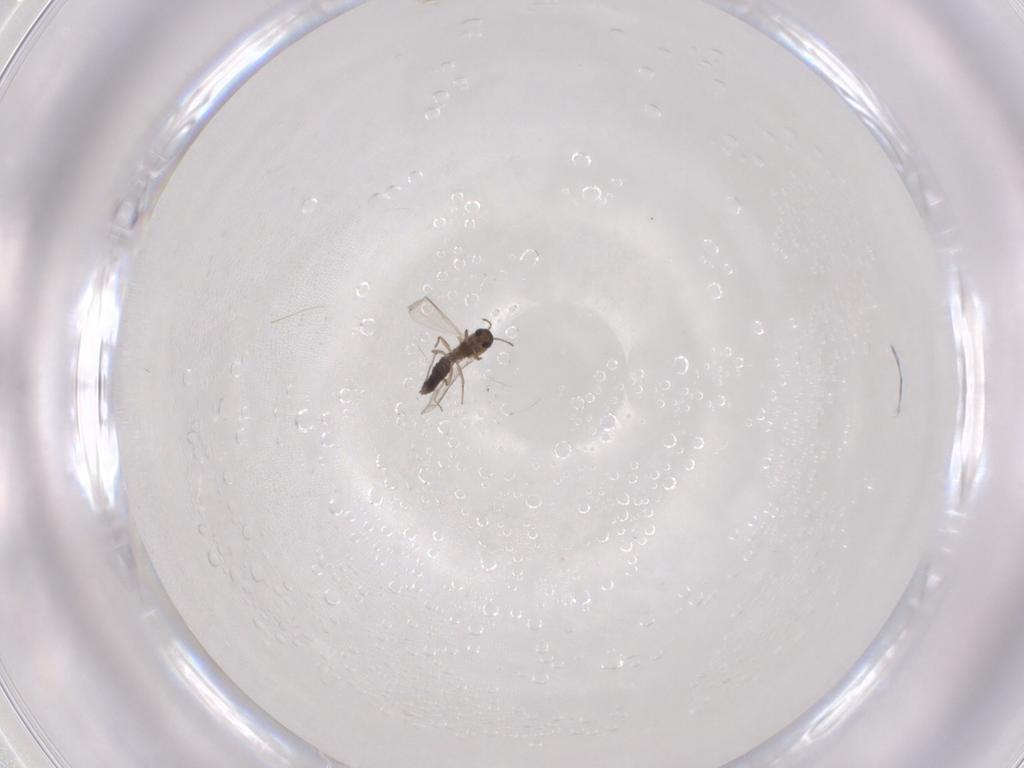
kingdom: Animalia
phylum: Arthropoda
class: Insecta
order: Diptera
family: Chironomidae
